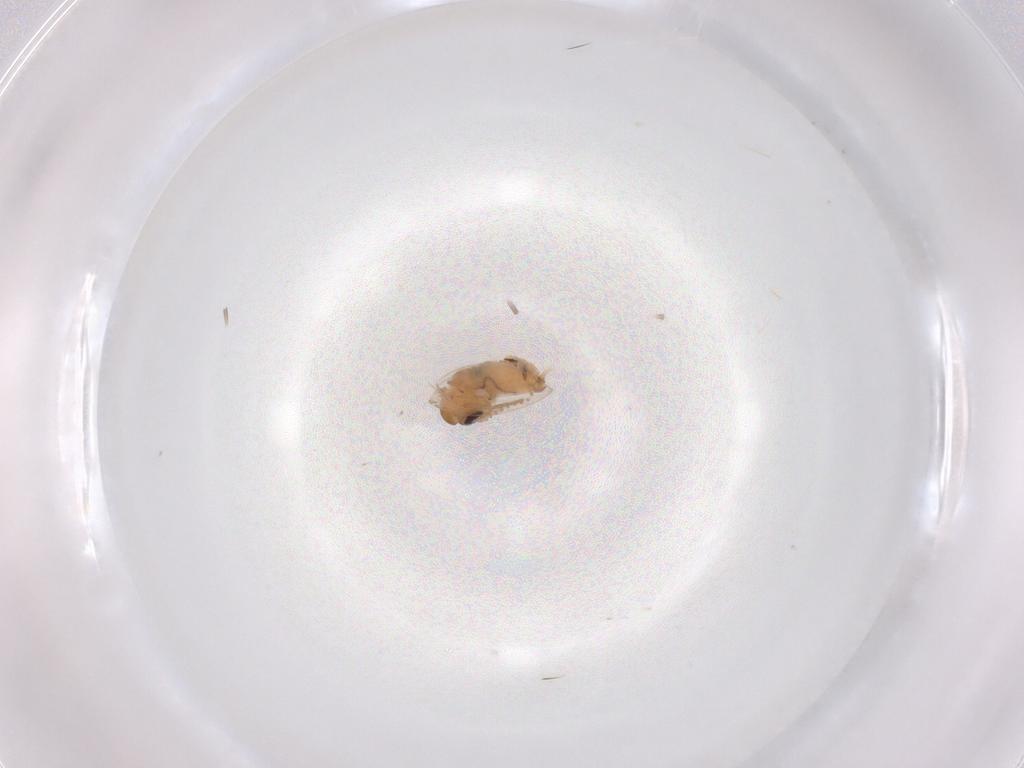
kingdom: Animalia
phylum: Arthropoda
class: Insecta
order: Diptera
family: Psychodidae
